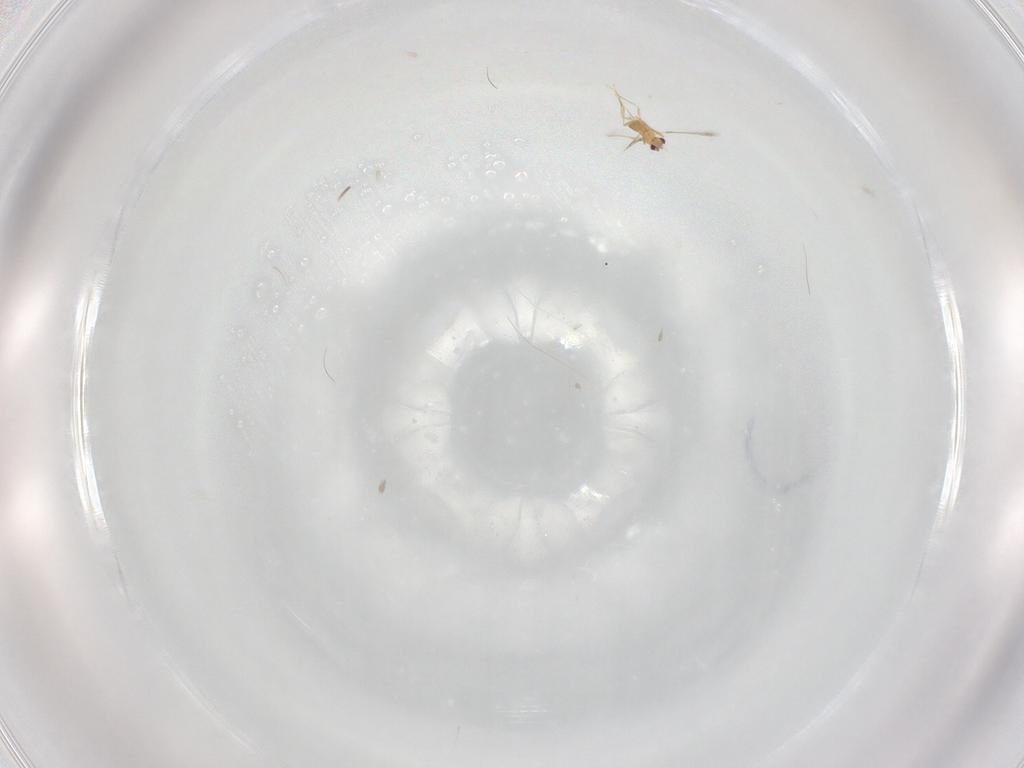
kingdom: Animalia
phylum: Arthropoda
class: Insecta
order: Hymenoptera
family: Mymaridae
